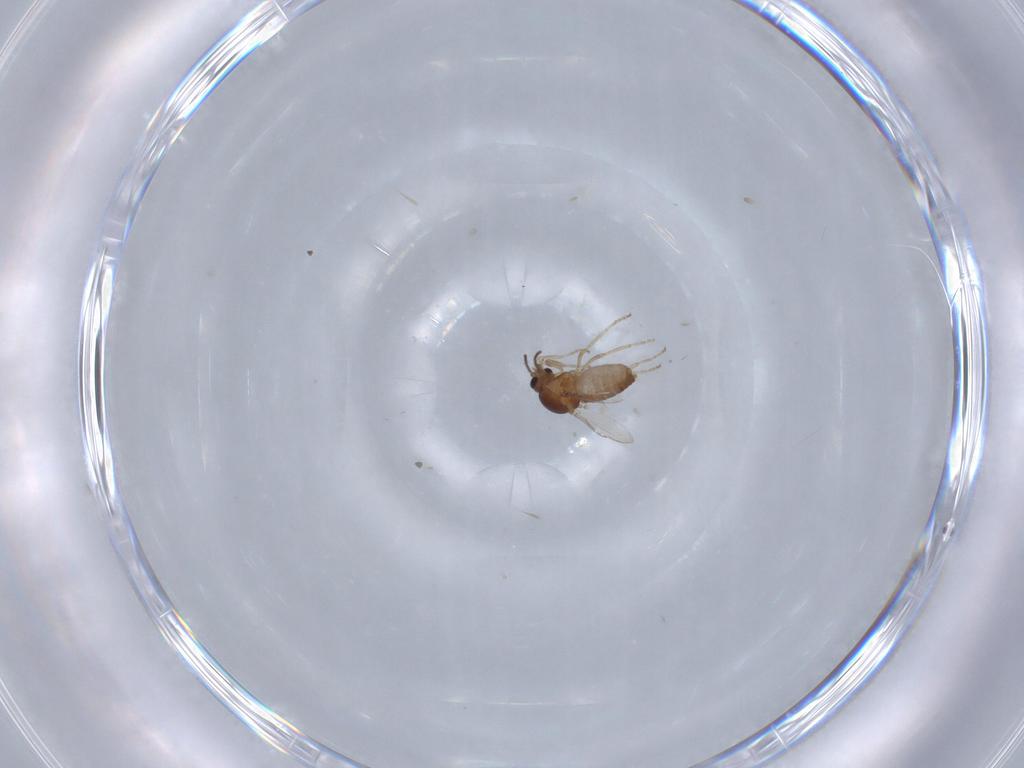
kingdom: Animalia
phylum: Arthropoda
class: Insecta
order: Diptera
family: Ceratopogonidae
